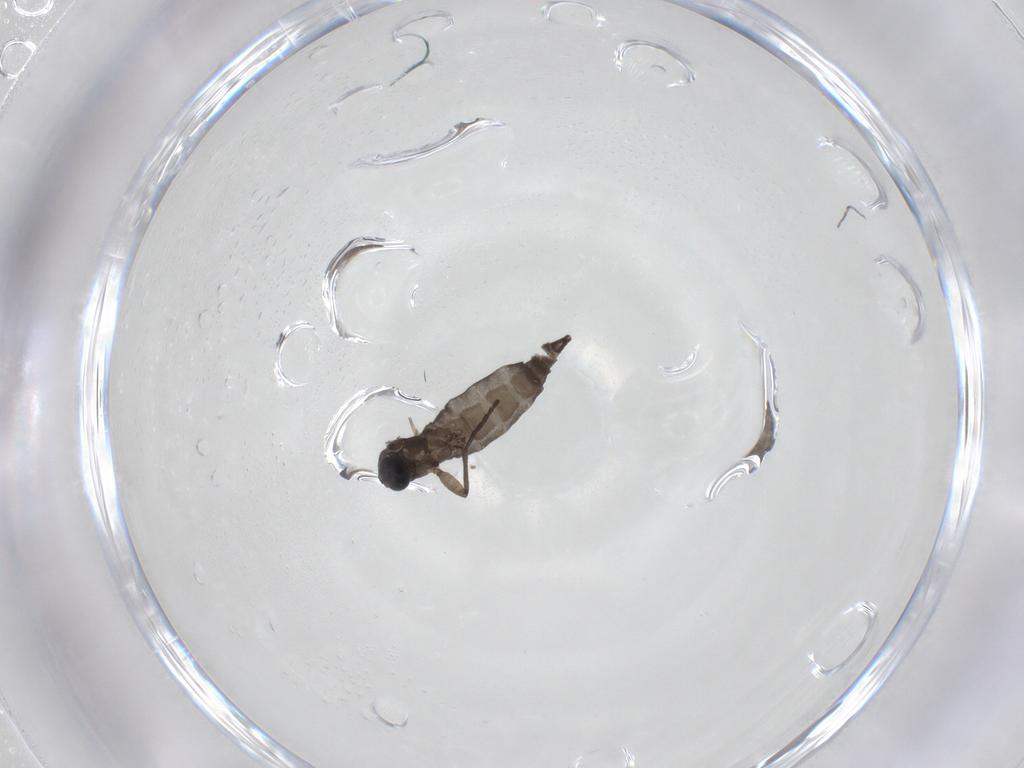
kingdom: Animalia
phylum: Arthropoda
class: Insecta
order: Diptera
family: Sciaridae
